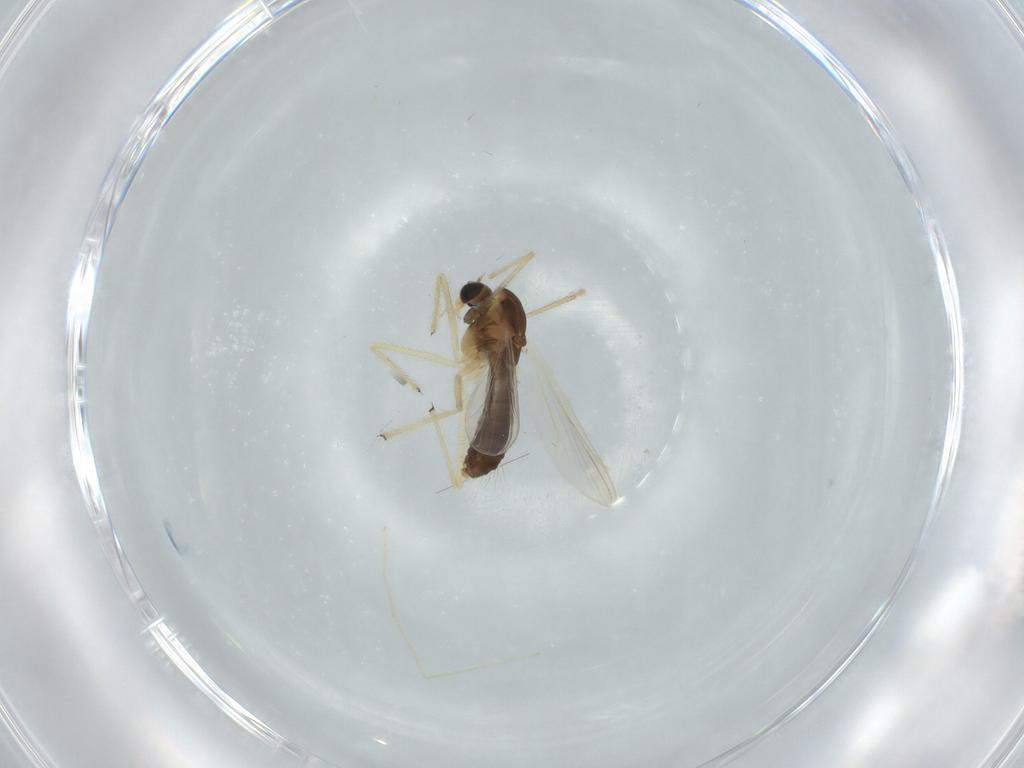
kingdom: Animalia
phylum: Arthropoda
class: Insecta
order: Diptera
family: Chironomidae
